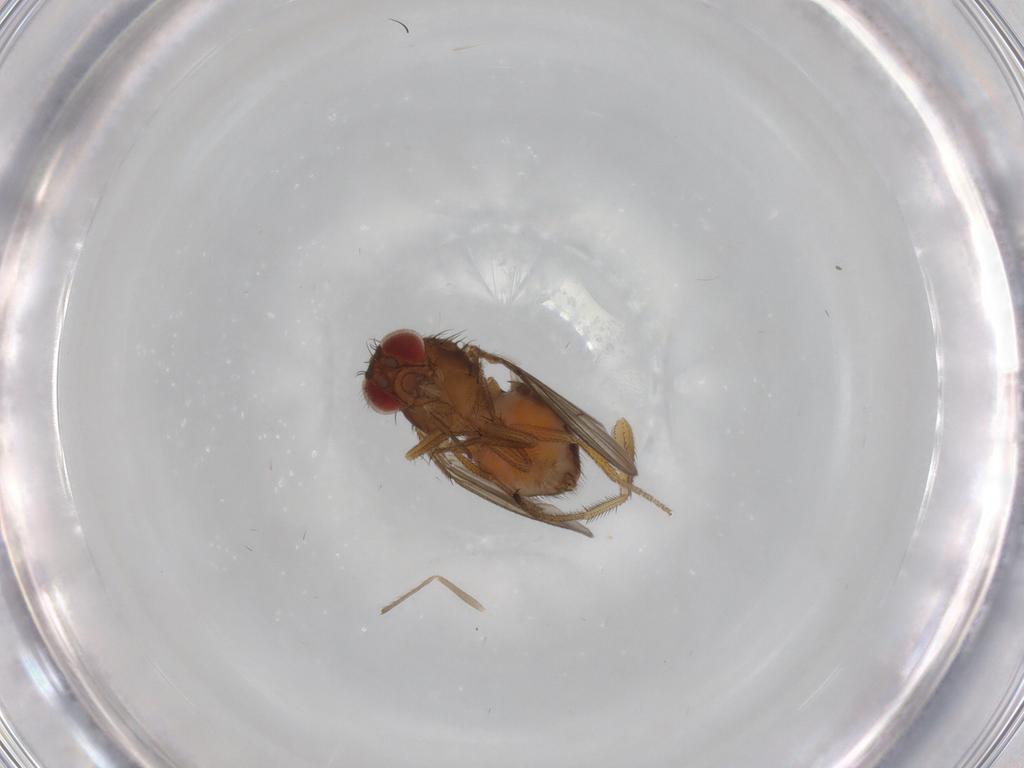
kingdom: Animalia
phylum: Arthropoda
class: Insecta
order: Diptera
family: Drosophilidae
